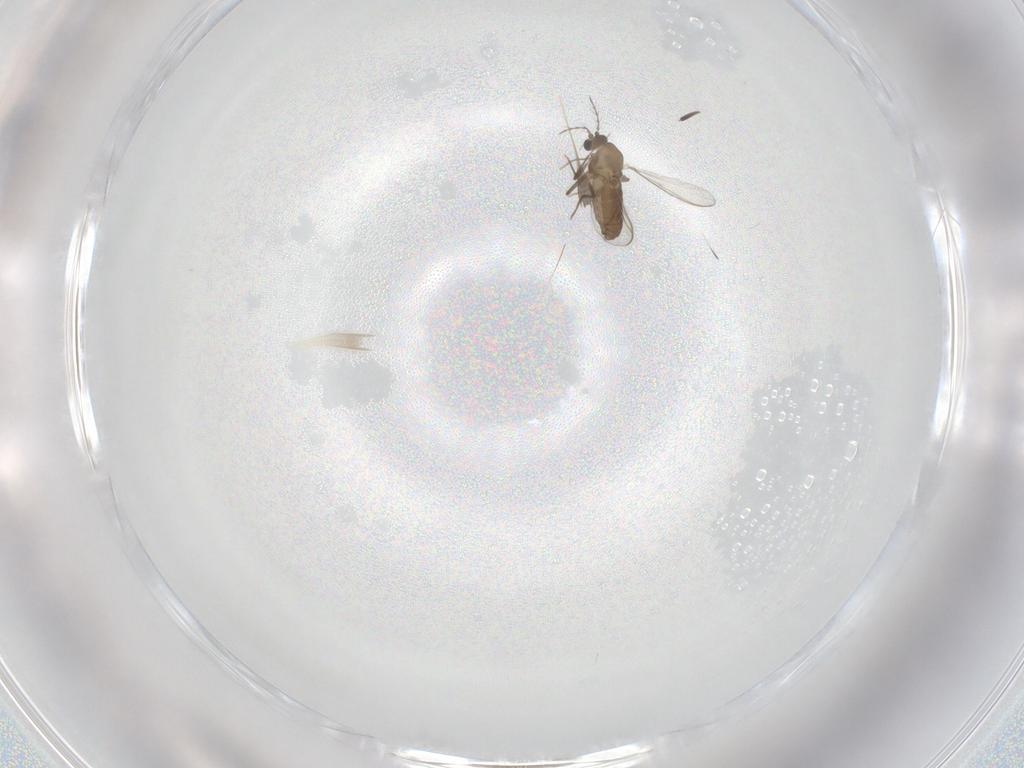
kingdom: Animalia
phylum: Arthropoda
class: Insecta
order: Diptera
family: Chironomidae
